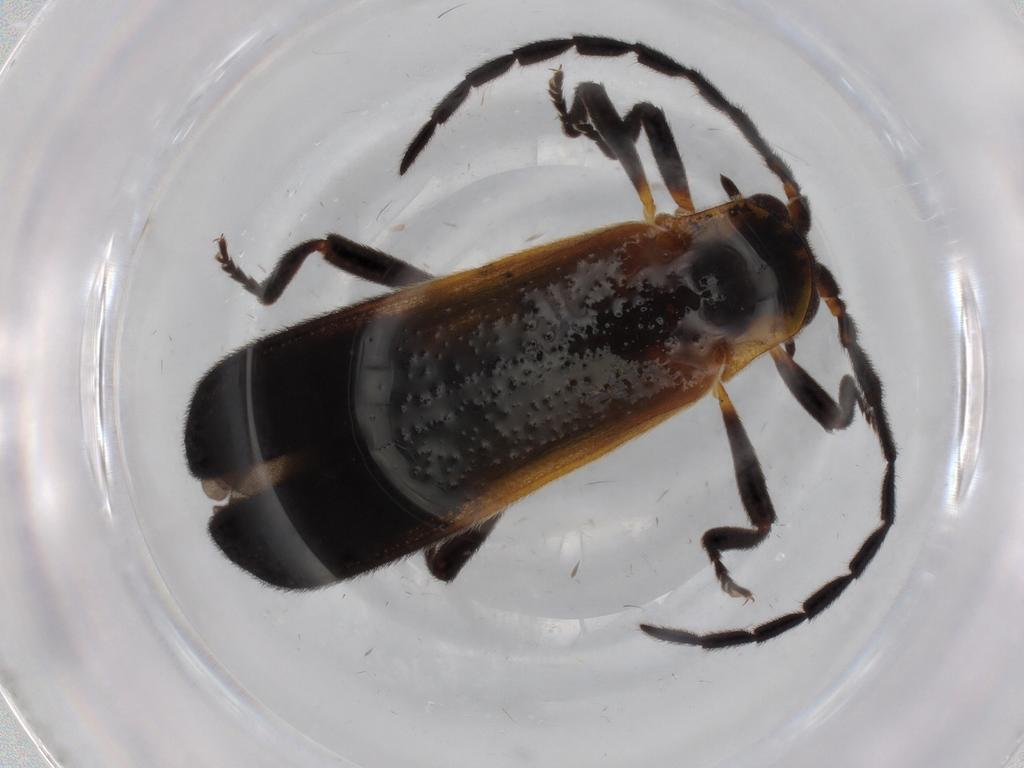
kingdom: Animalia
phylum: Arthropoda
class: Insecta
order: Coleoptera
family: Lycidae
